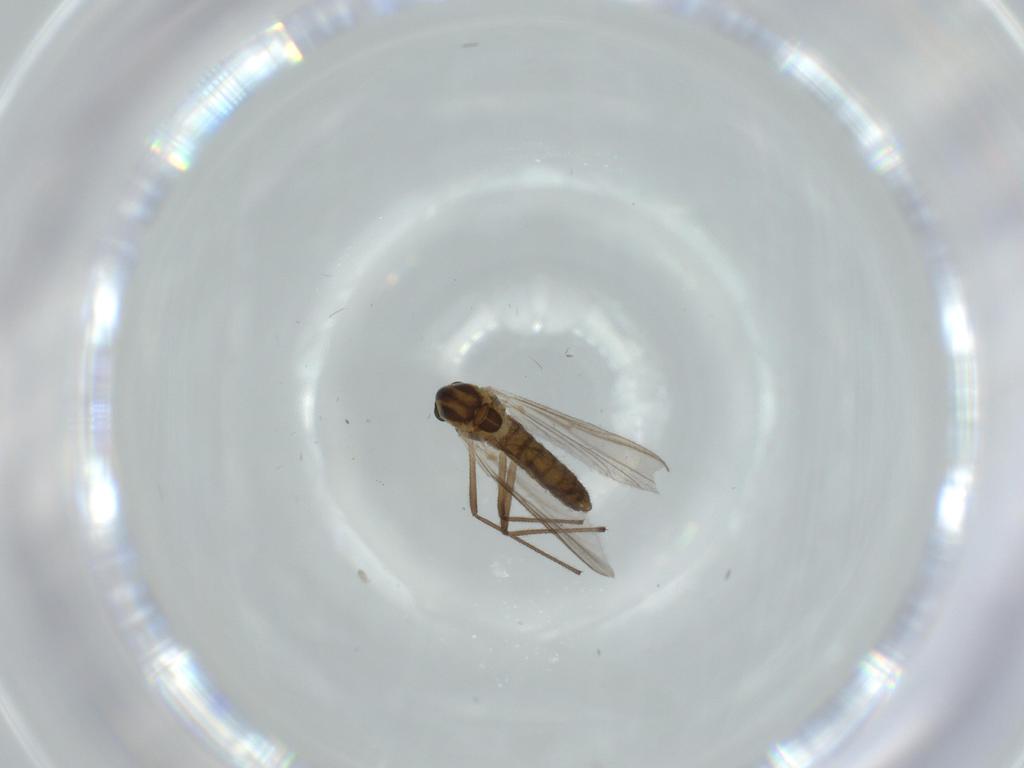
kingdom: Animalia
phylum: Arthropoda
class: Insecta
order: Diptera
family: Chironomidae
